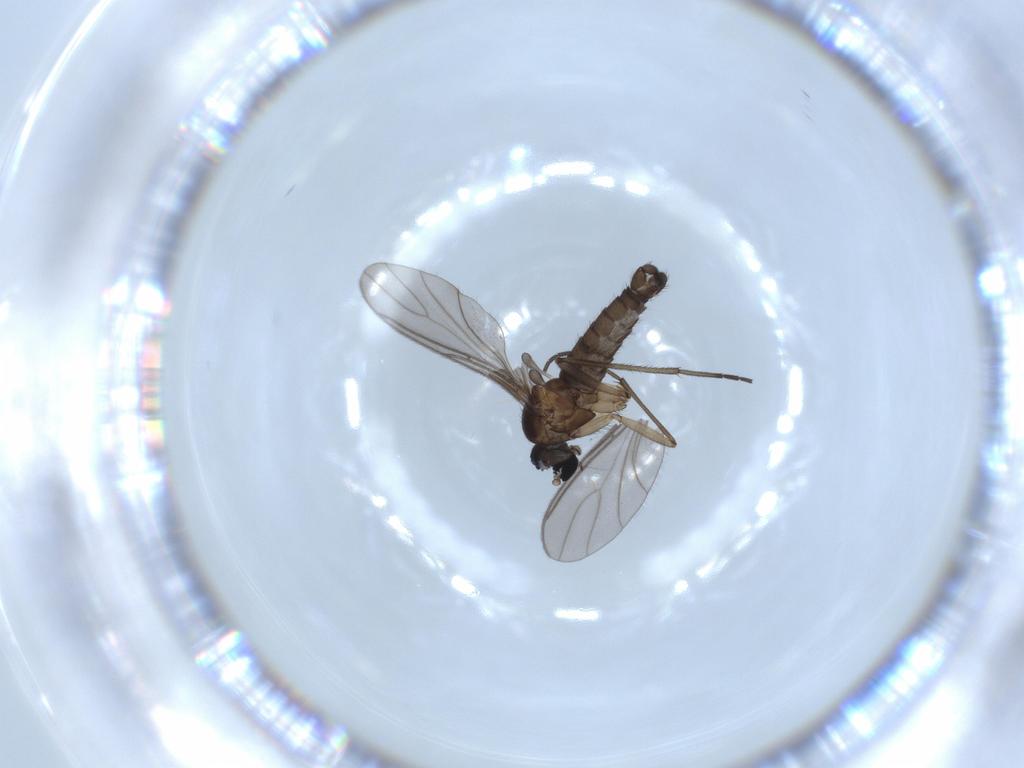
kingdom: Animalia
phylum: Arthropoda
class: Insecta
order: Diptera
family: Sciaridae
